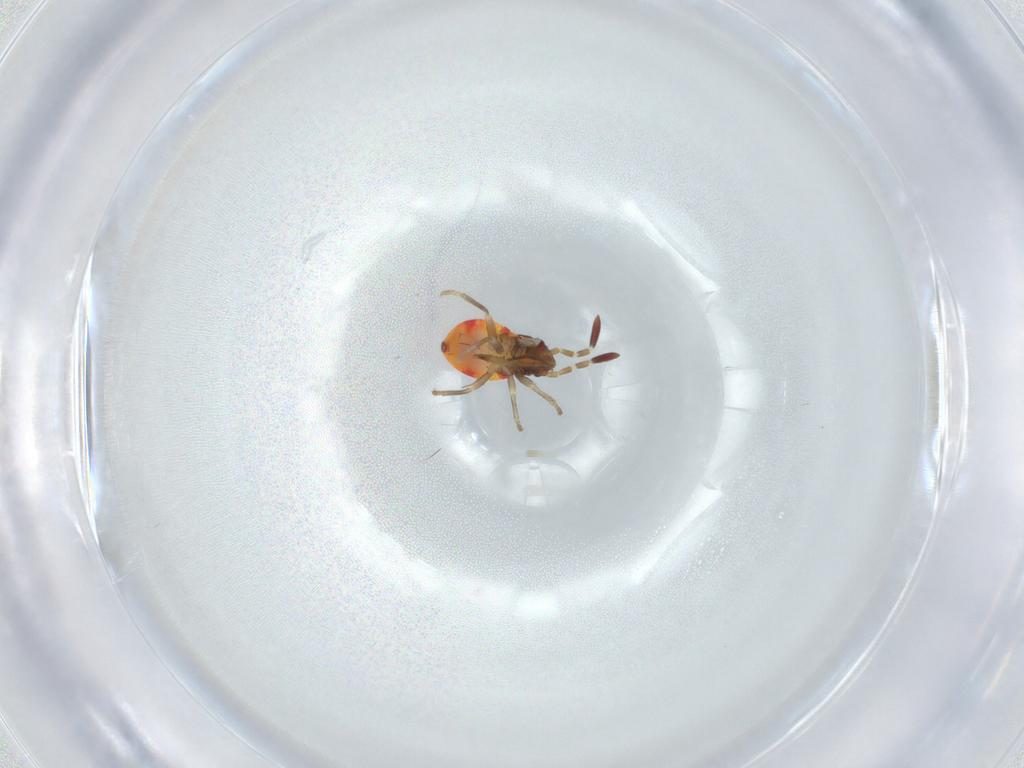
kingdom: Animalia
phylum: Arthropoda
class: Insecta
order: Hemiptera
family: Rhyparochromidae
